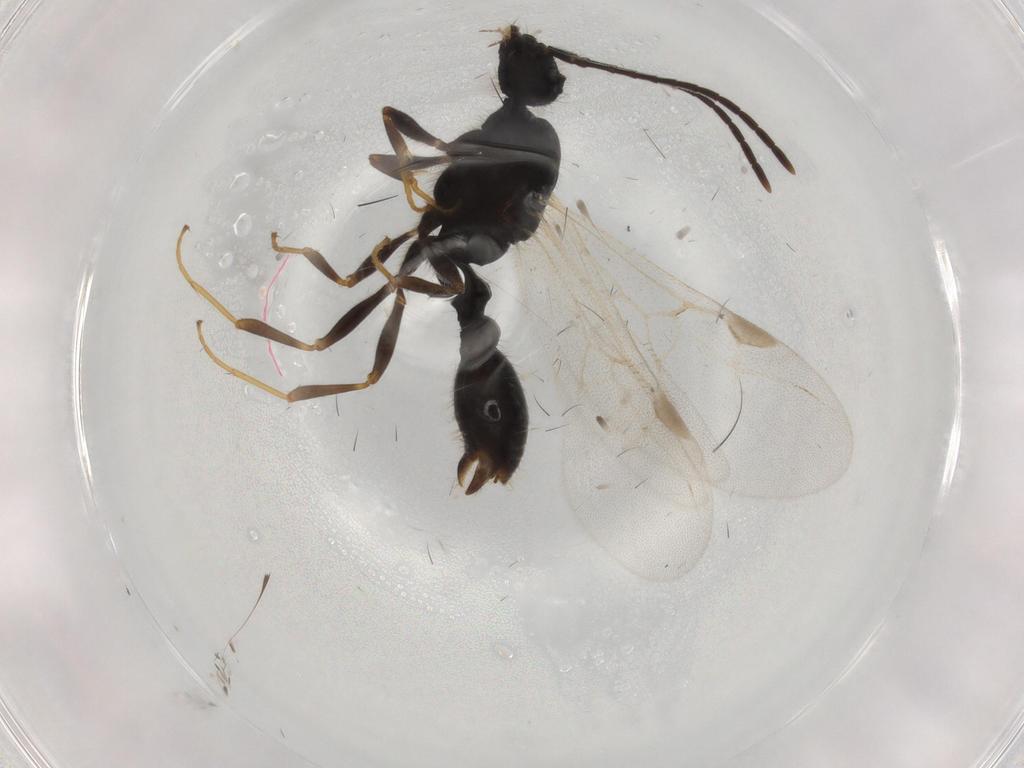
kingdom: Animalia
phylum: Arthropoda
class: Insecta
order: Hymenoptera
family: Formicidae
